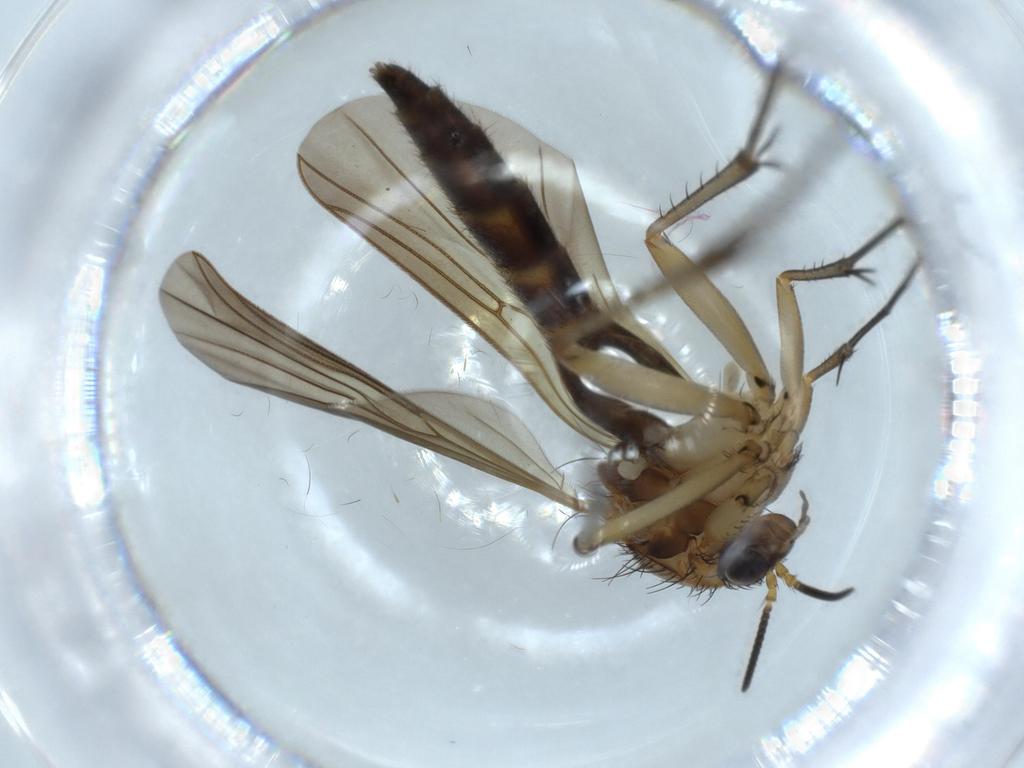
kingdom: Animalia
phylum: Arthropoda
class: Insecta
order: Diptera
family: Mycetophilidae
